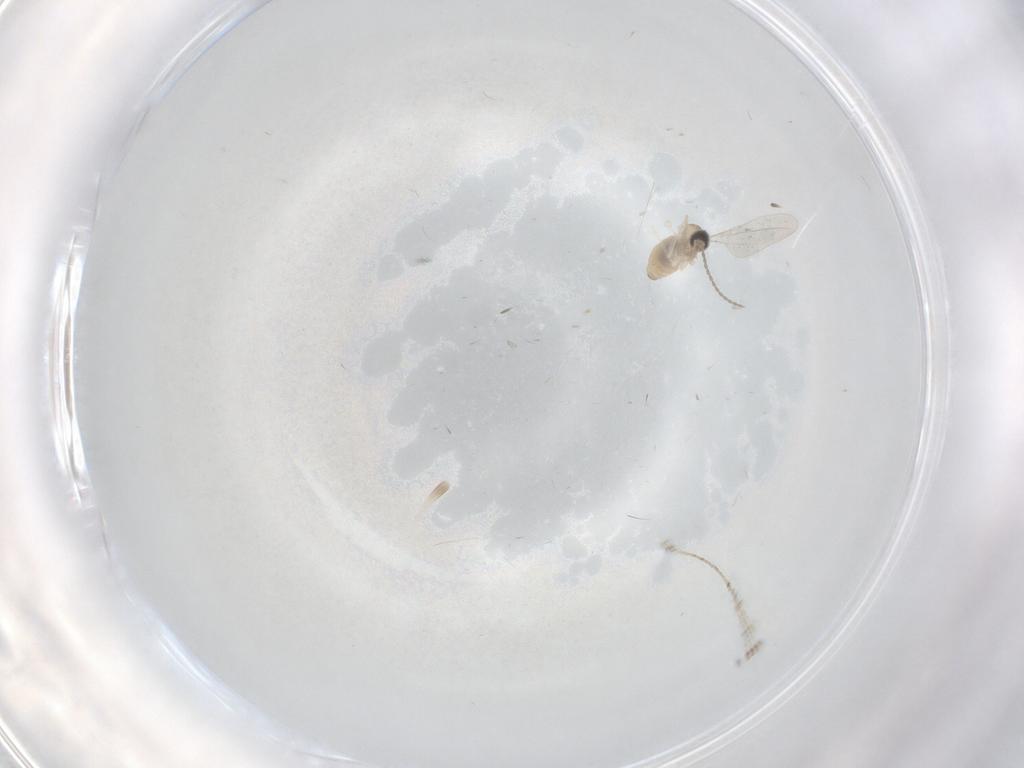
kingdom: Animalia
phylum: Arthropoda
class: Insecta
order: Diptera
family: Cecidomyiidae
